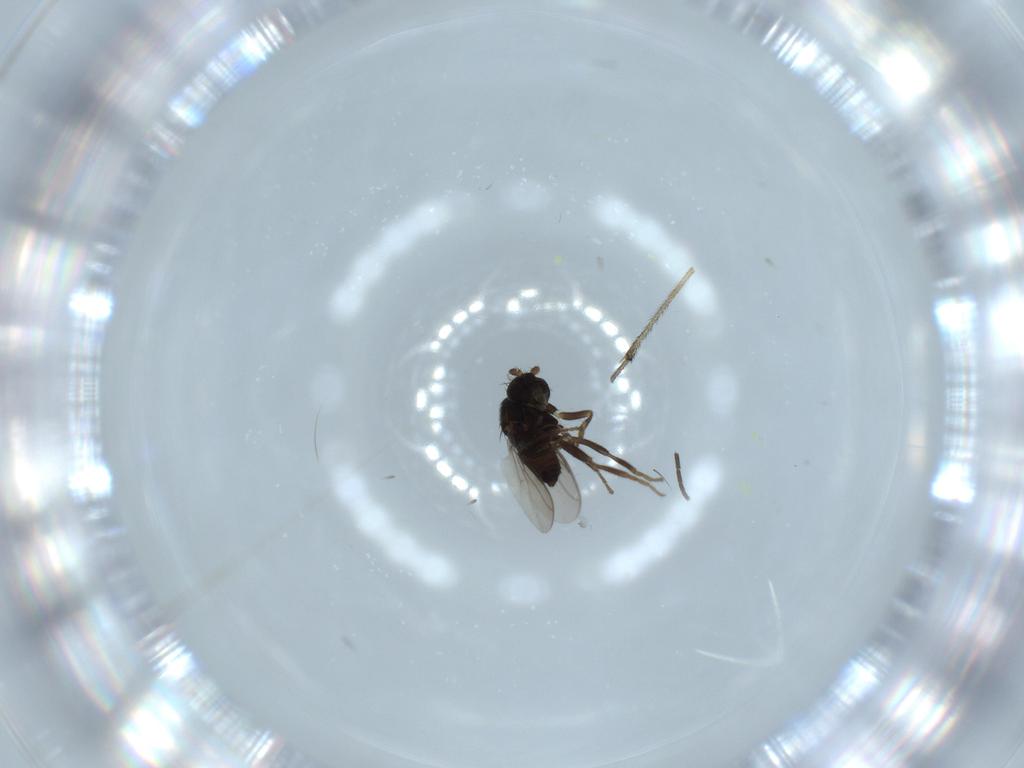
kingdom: Animalia
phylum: Arthropoda
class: Insecta
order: Diptera
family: Sphaeroceridae
